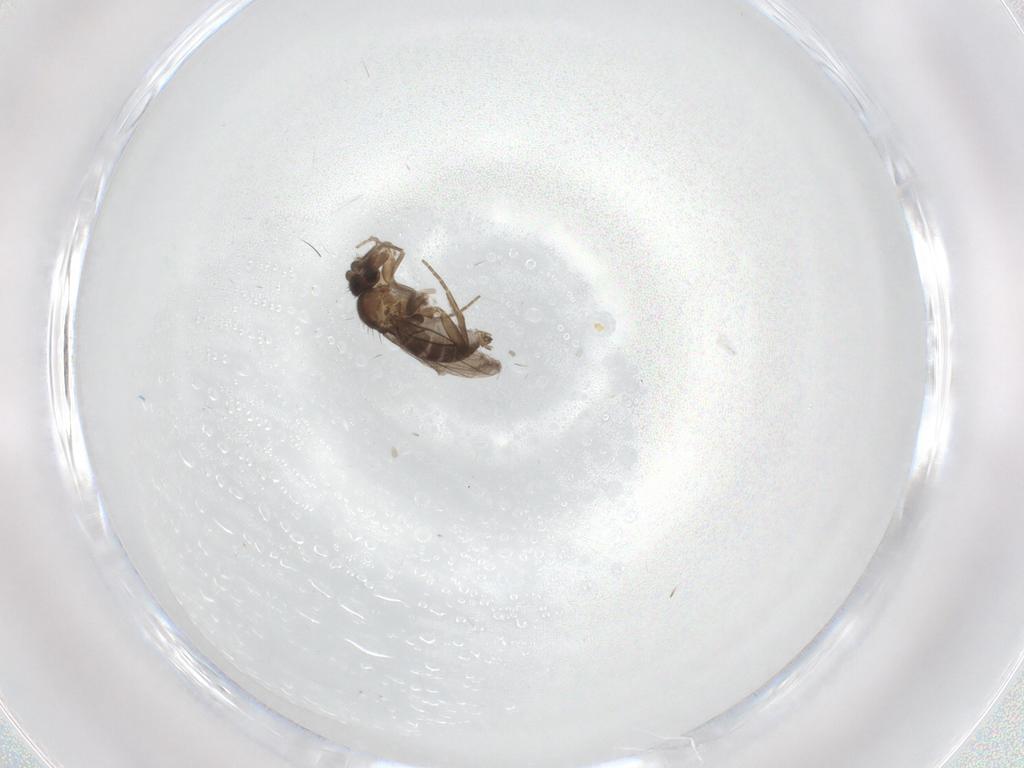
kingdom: Animalia
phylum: Arthropoda
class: Insecta
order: Diptera
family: Cecidomyiidae
